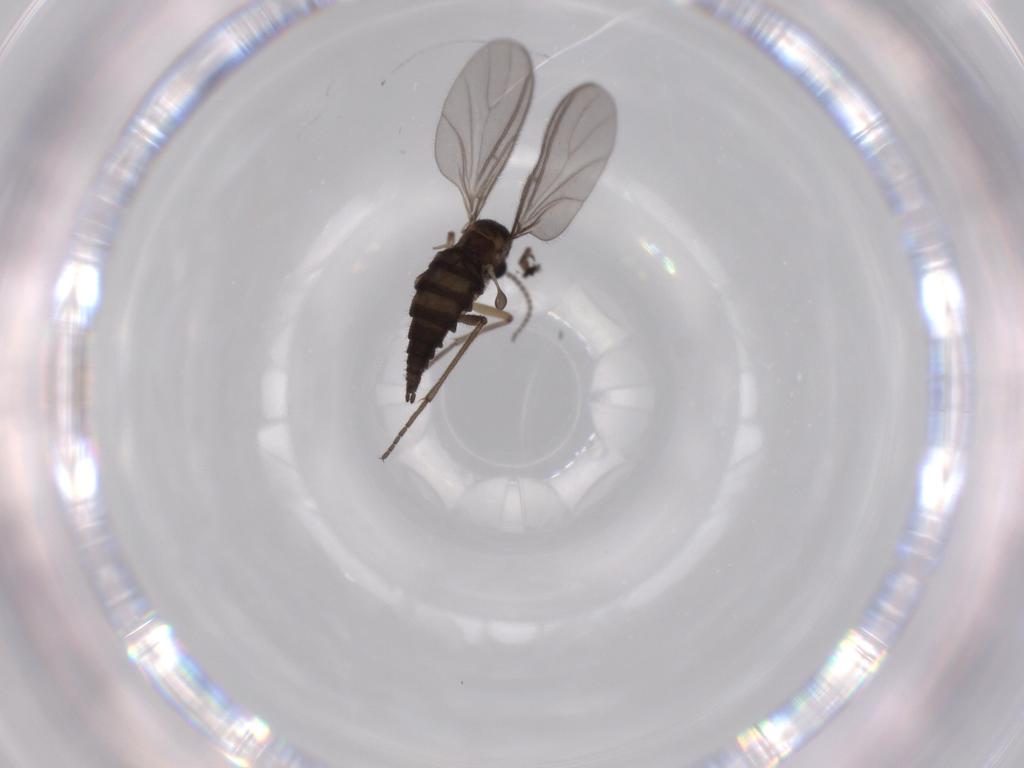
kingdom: Animalia
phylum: Arthropoda
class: Insecta
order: Diptera
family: Sciaridae
